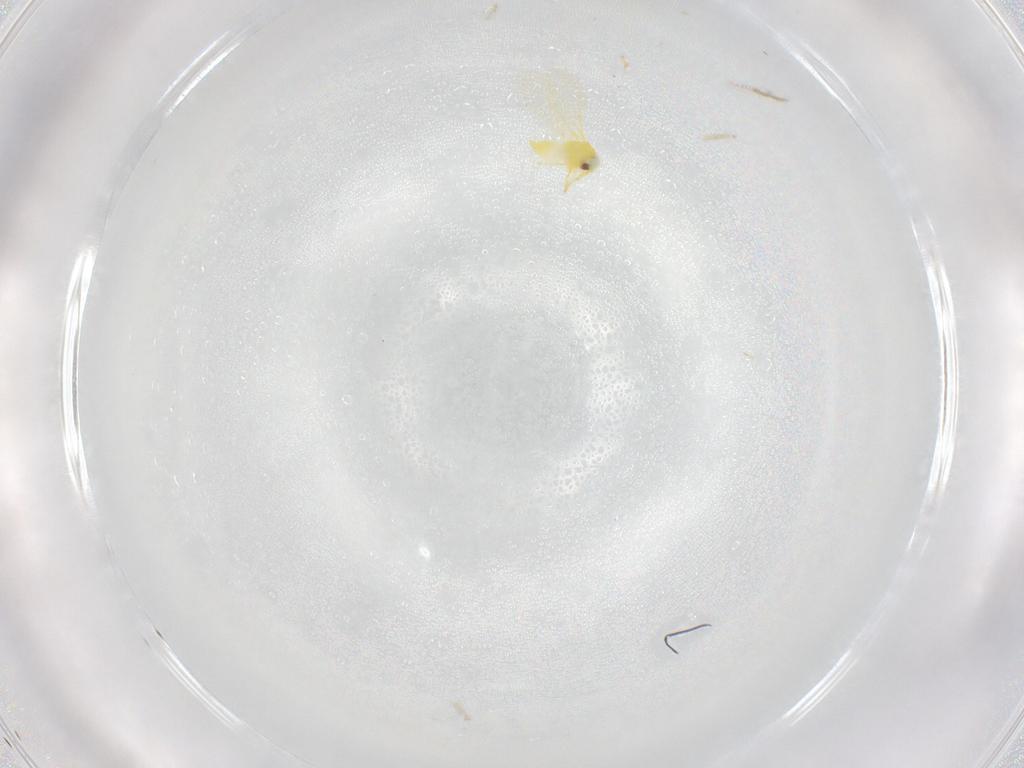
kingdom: Animalia
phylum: Arthropoda
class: Insecta
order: Hemiptera
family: Aleyrodidae
